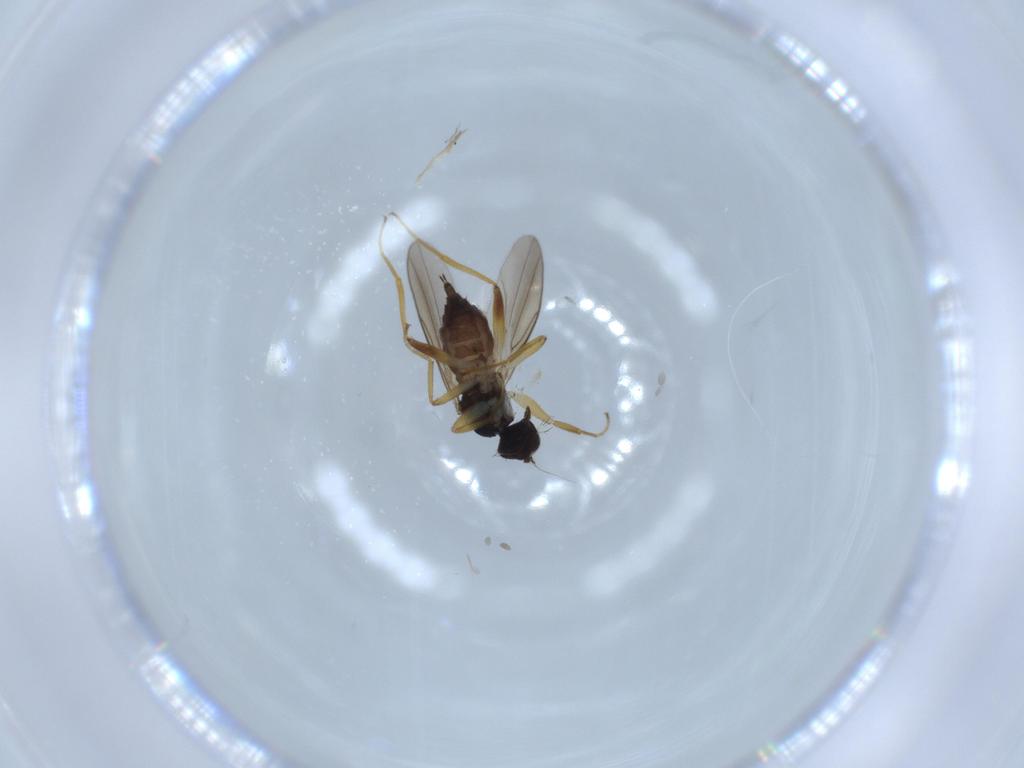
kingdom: Animalia
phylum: Arthropoda
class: Insecta
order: Diptera
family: Hybotidae
